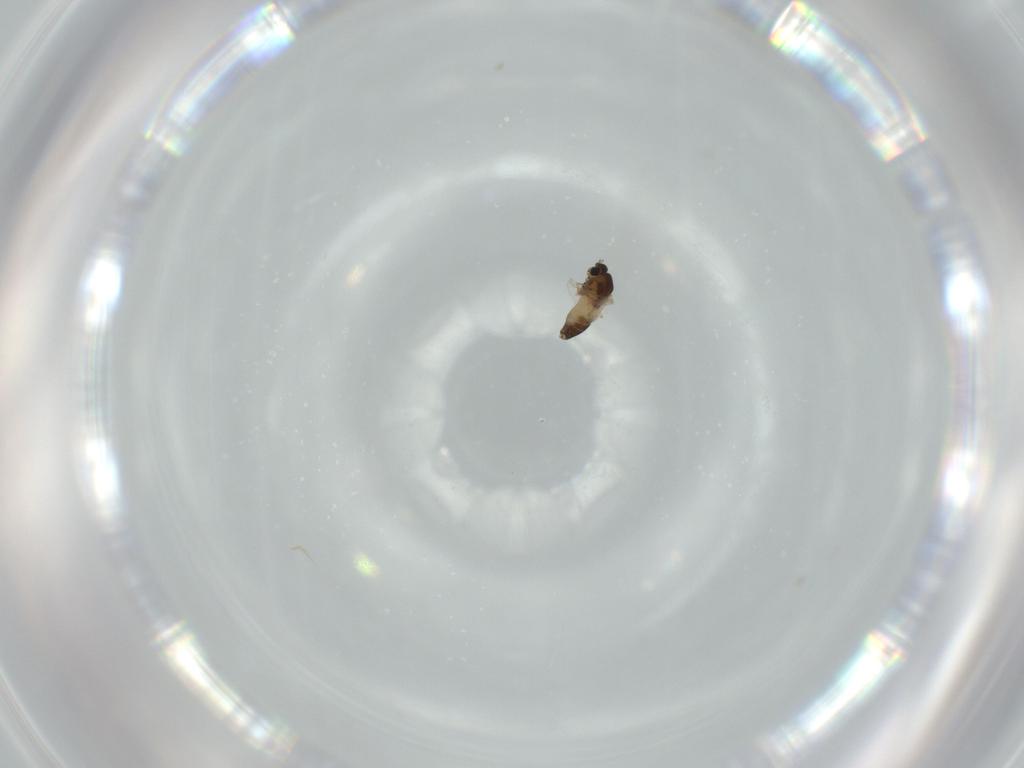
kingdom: Animalia
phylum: Arthropoda
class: Insecta
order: Diptera
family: Chironomidae
